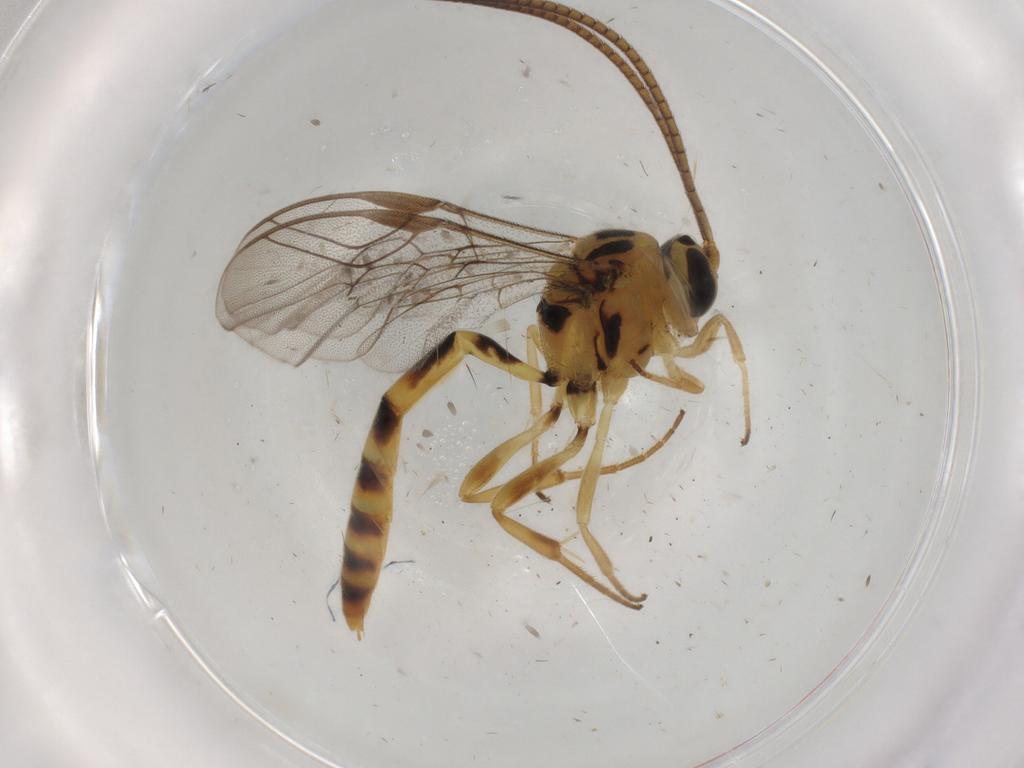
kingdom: Animalia
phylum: Arthropoda
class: Insecta
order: Hymenoptera
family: Ichneumonidae
